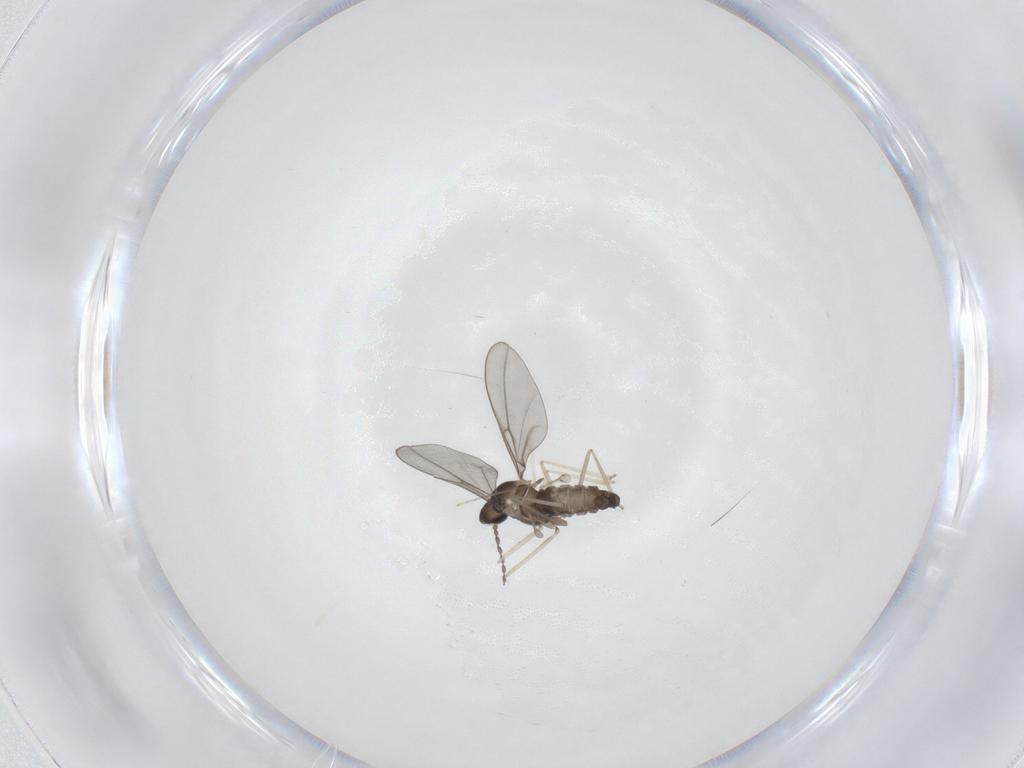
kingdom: Animalia
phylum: Arthropoda
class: Insecta
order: Diptera
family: Cecidomyiidae
